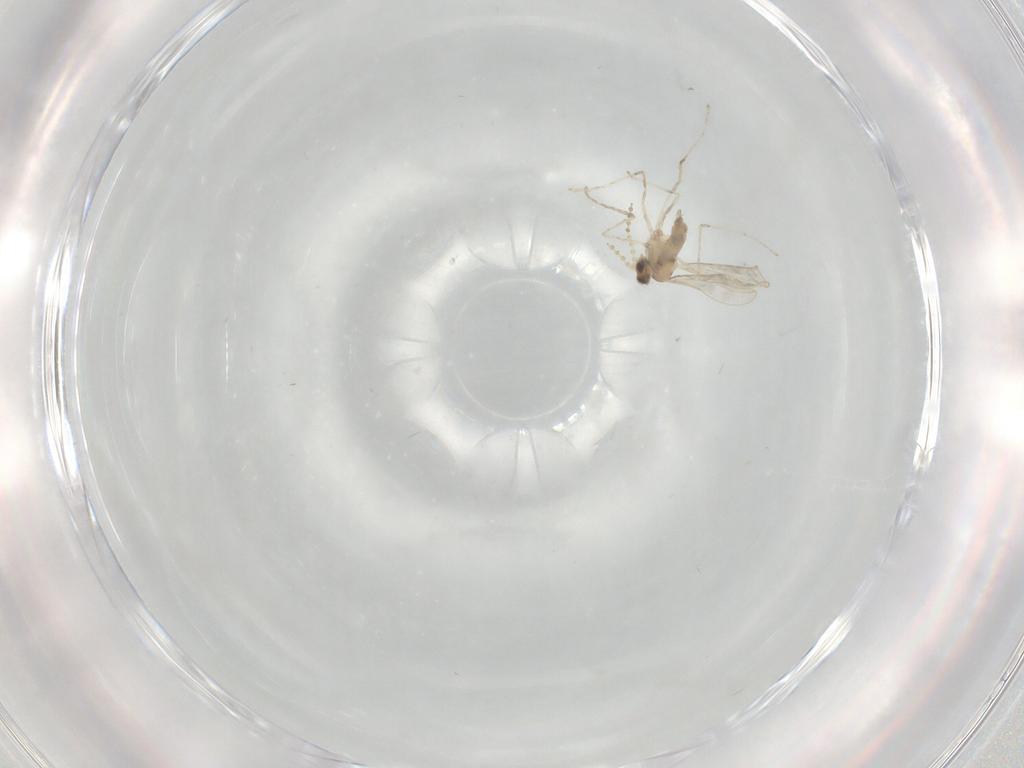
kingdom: Animalia
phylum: Arthropoda
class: Insecta
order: Diptera
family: Cecidomyiidae
